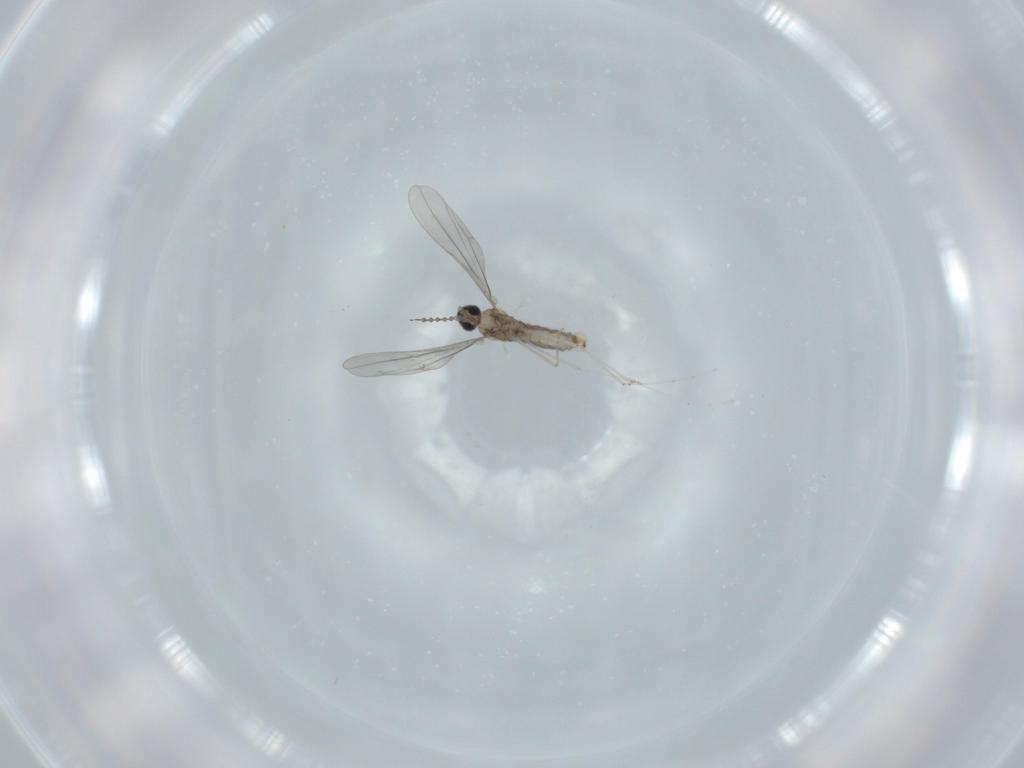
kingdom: Animalia
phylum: Arthropoda
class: Insecta
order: Diptera
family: Cecidomyiidae
